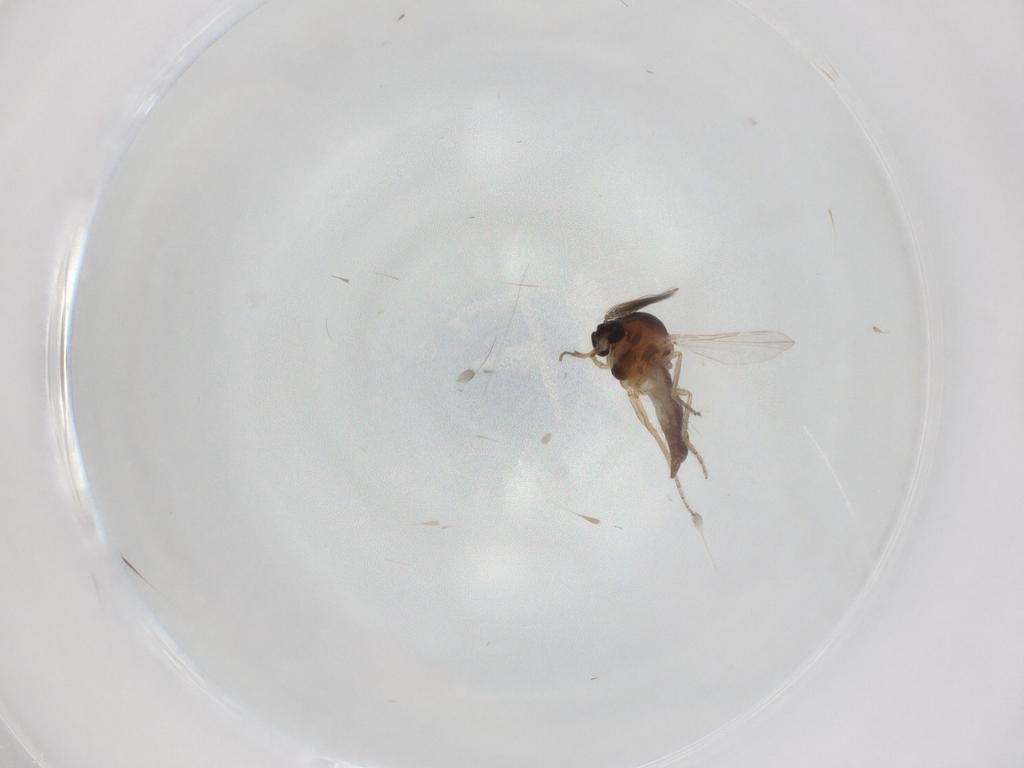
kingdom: Animalia
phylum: Arthropoda
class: Insecta
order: Diptera
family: Ceratopogonidae
